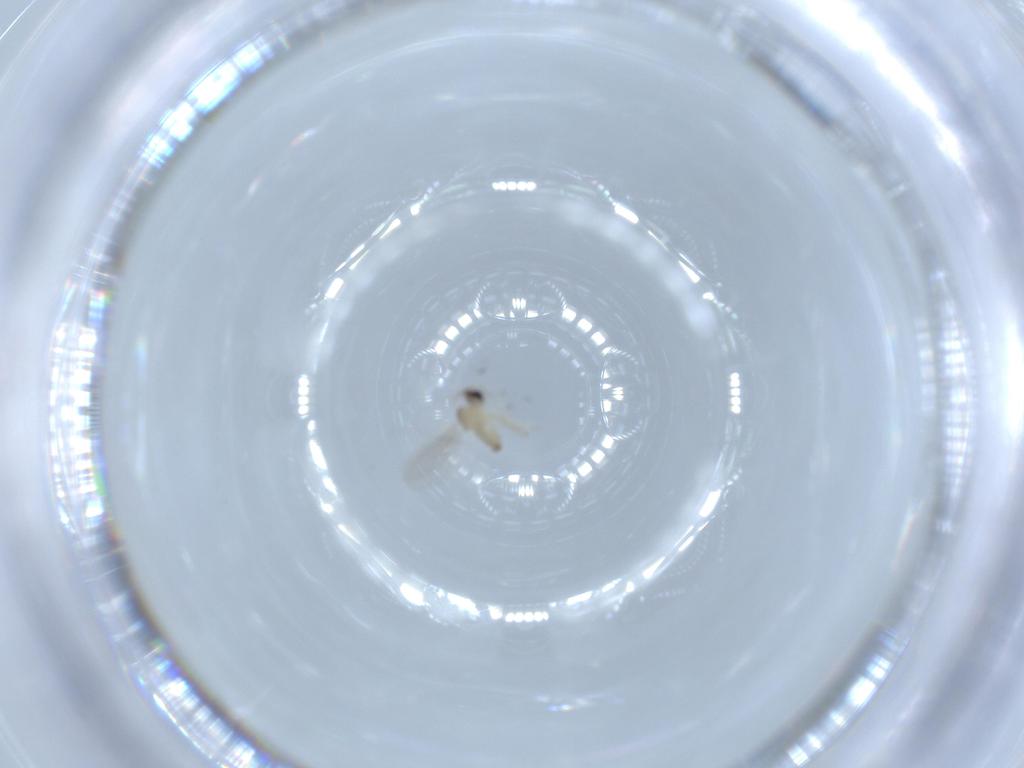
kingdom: Animalia
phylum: Arthropoda
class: Insecta
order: Diptera
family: Cecidomyiidae
